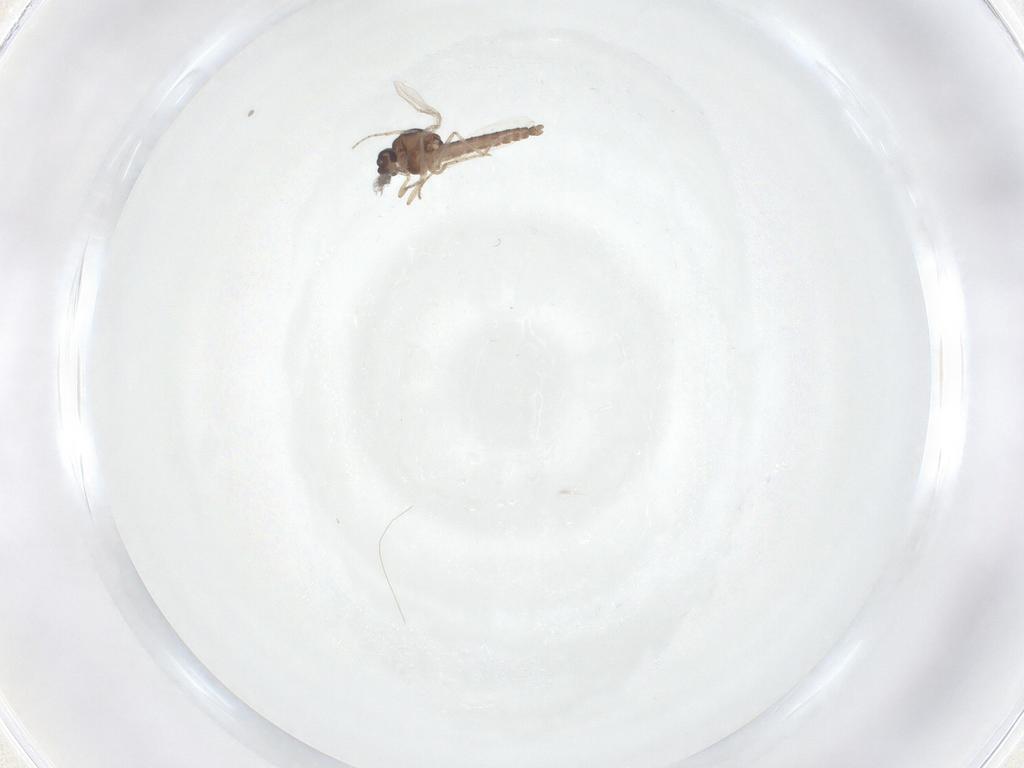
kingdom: Animalia
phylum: Arthropoda
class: Insecta
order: Diptera
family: Ceratopogonidae
